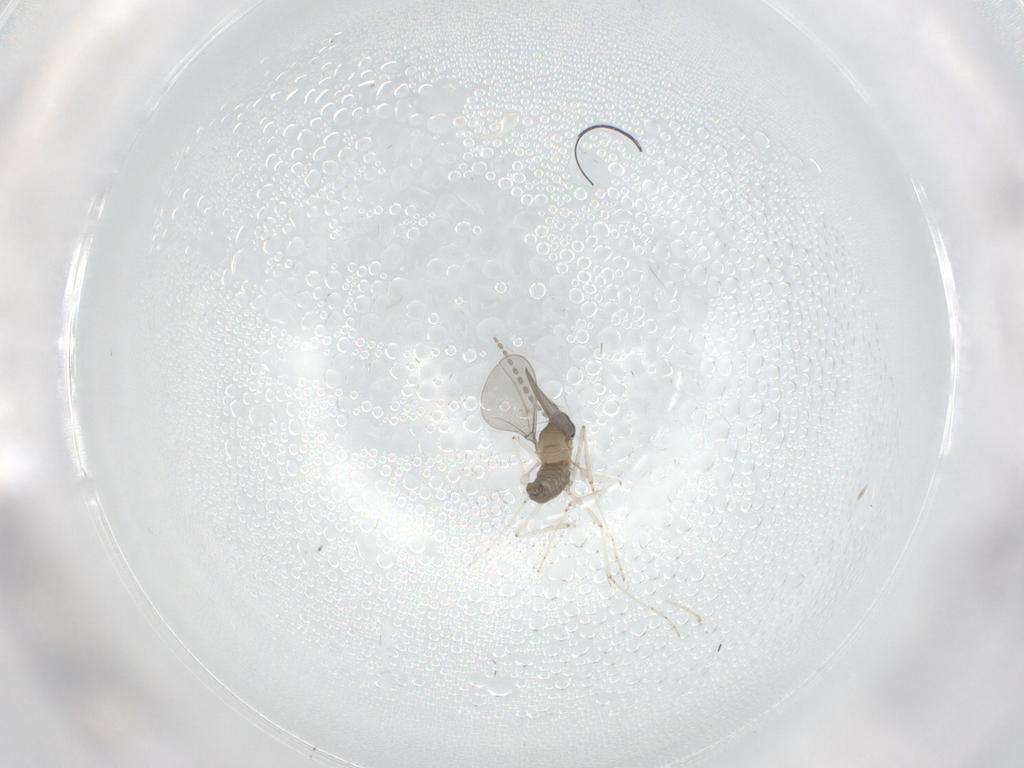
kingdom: Animalia
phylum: Arthropoda
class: Insecta
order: Diptera
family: Cecidomyiidae
